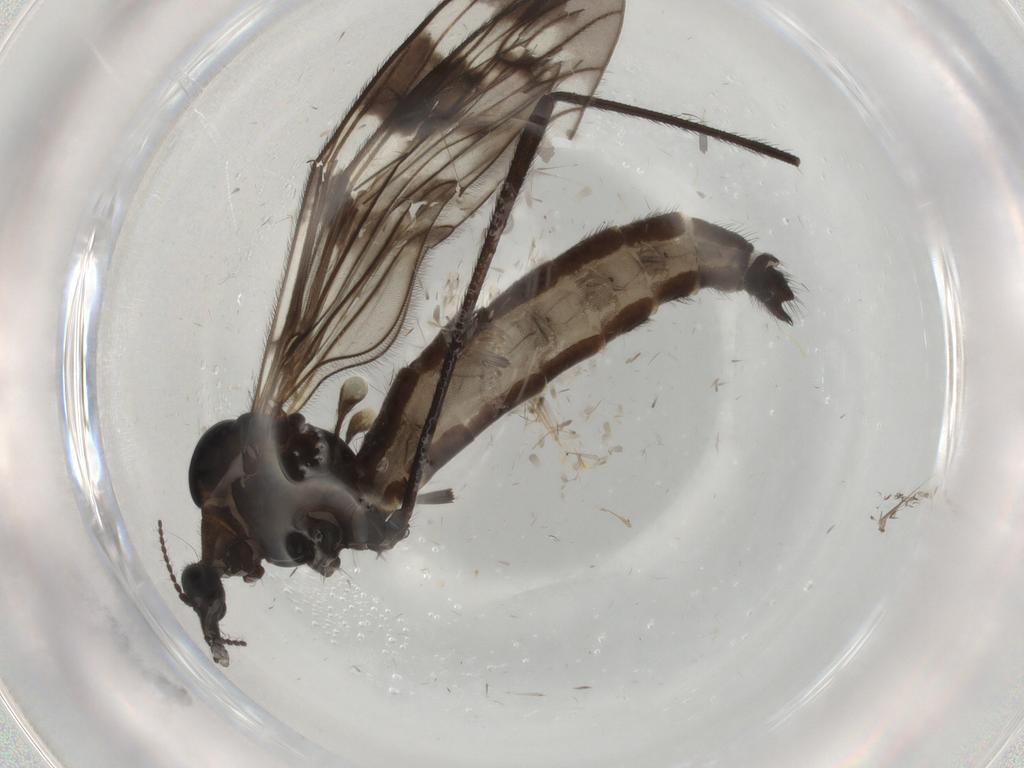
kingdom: Animalia
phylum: Arthropoda
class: Insecta
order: Diptera
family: Limoniidae
